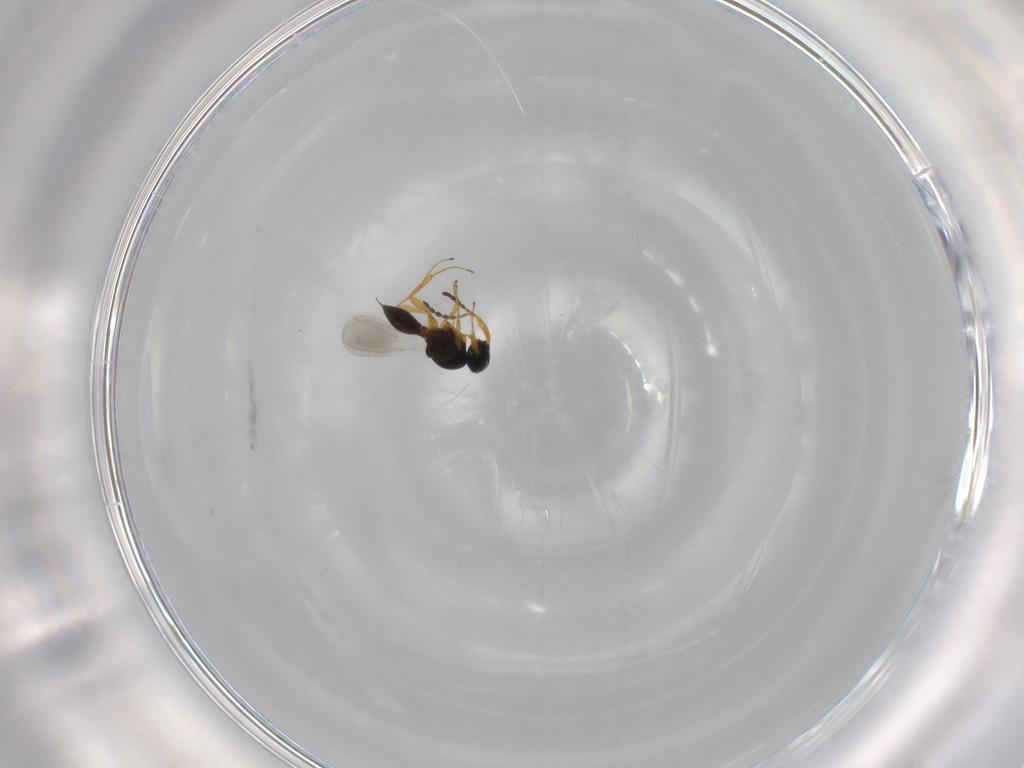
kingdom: Animalia
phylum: Arthropoda
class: Insecta
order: Hymenoptera
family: Platygastridae
